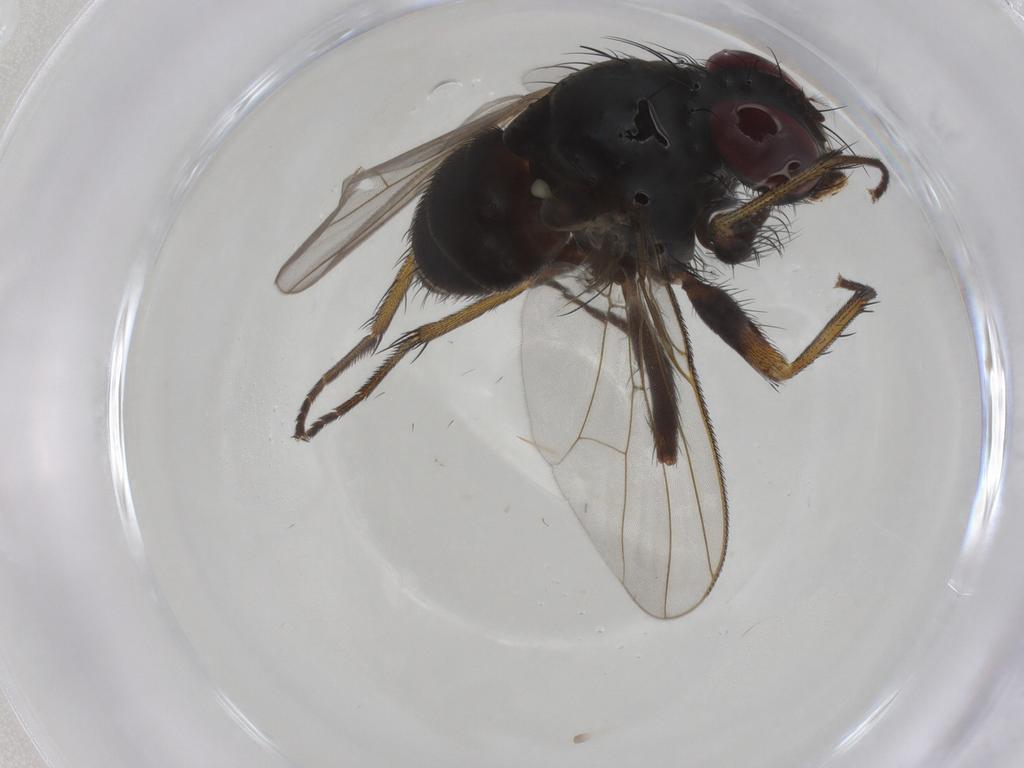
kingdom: Animalia
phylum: Arthropoda
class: Insecta
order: Diptera
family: Muscidae
